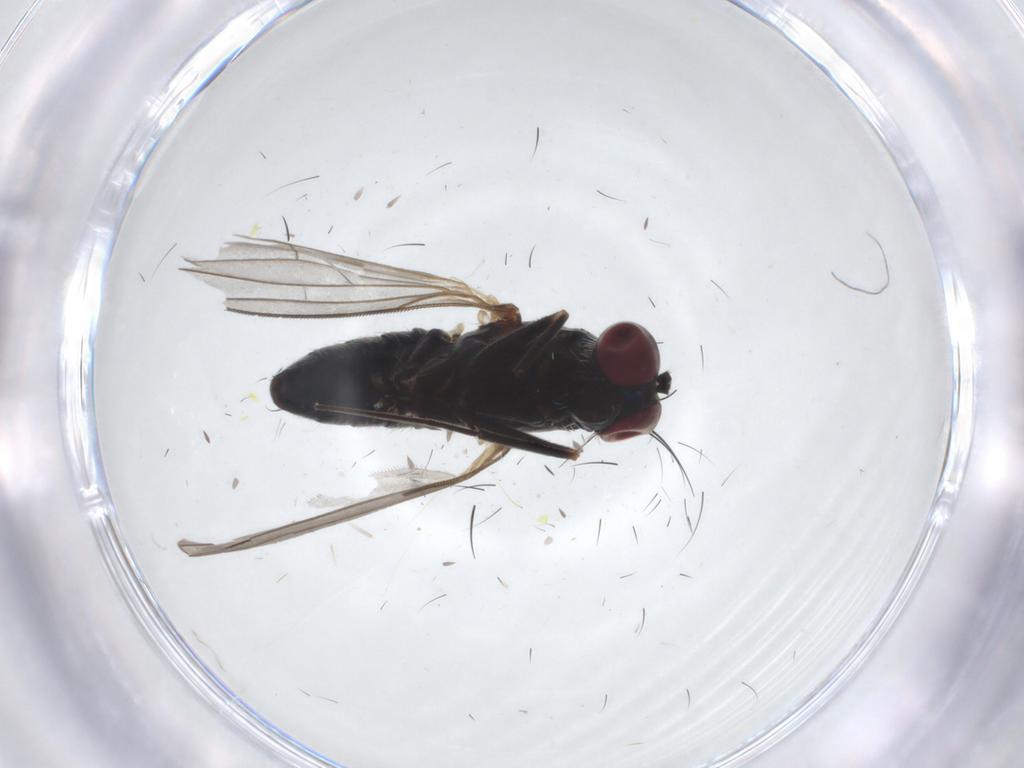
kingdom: Animalia
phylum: Arthropoda
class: Insecta
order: Diptera
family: Dolichopodidae
